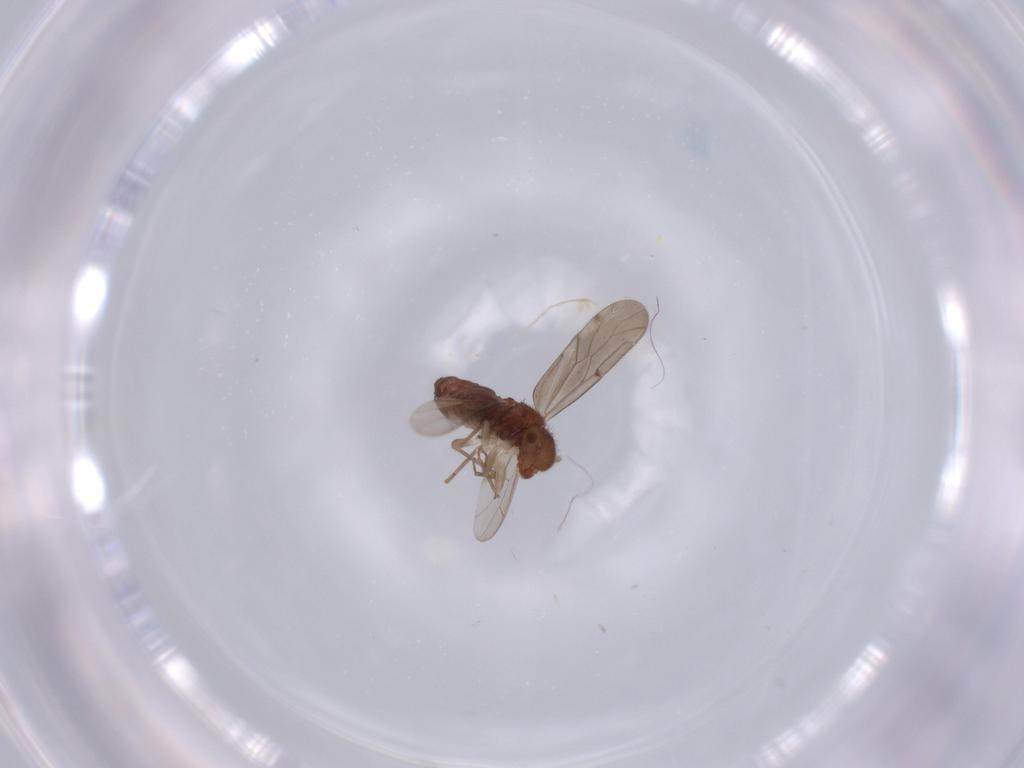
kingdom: Animalia
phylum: Arthropoda
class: Insecta
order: Psocodea
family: Ectopsocidae
